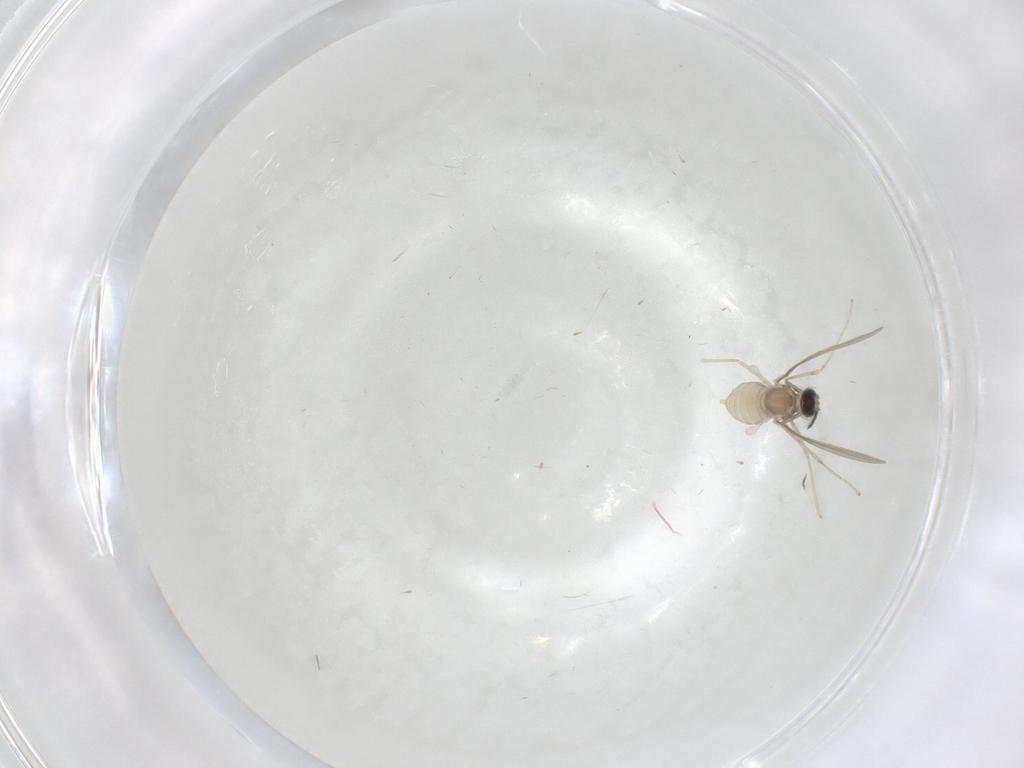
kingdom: Animalia
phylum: Arthropoda
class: Insecta
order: Diptera
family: Cecidomyiidae
